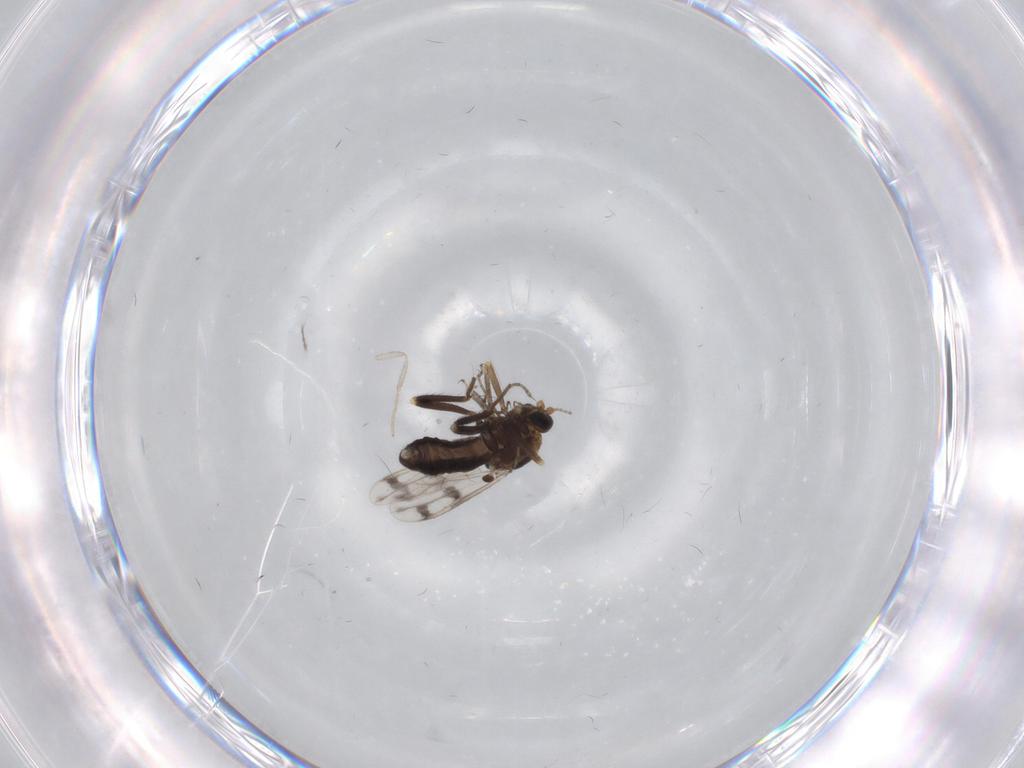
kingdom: Animalia
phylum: Arthropoda
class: Insecta
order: Diptera
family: Ceratopogonidae
